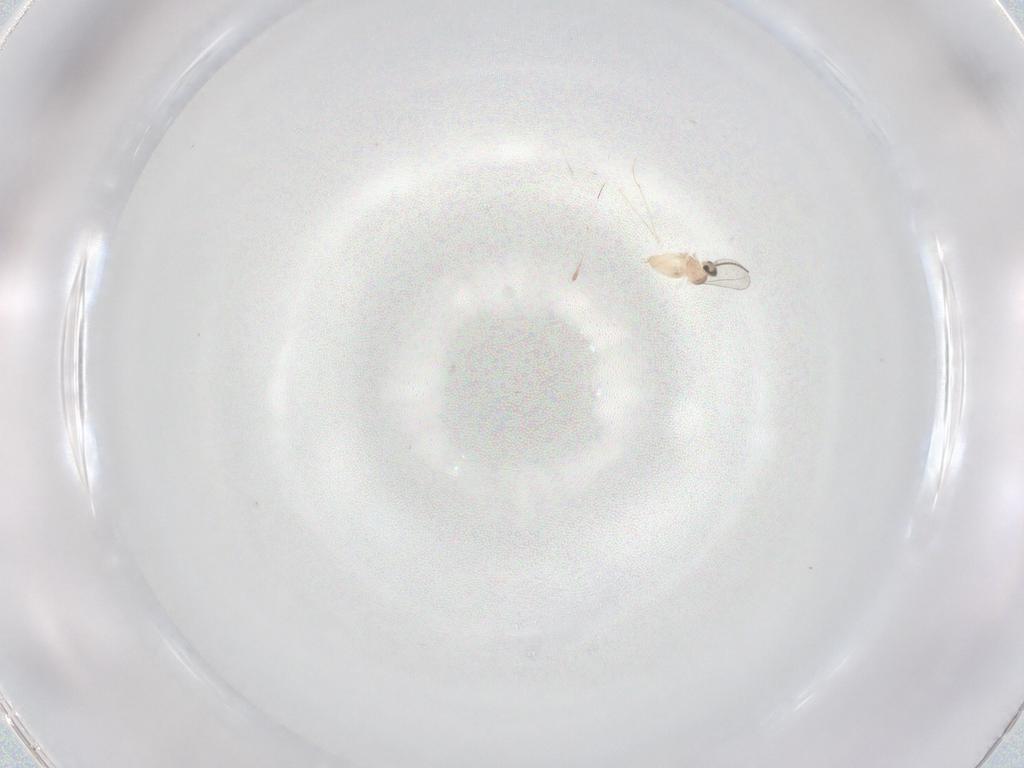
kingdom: Animalia
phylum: Arthropoda
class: Insecta
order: Diptera
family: Cecidomyiidae
